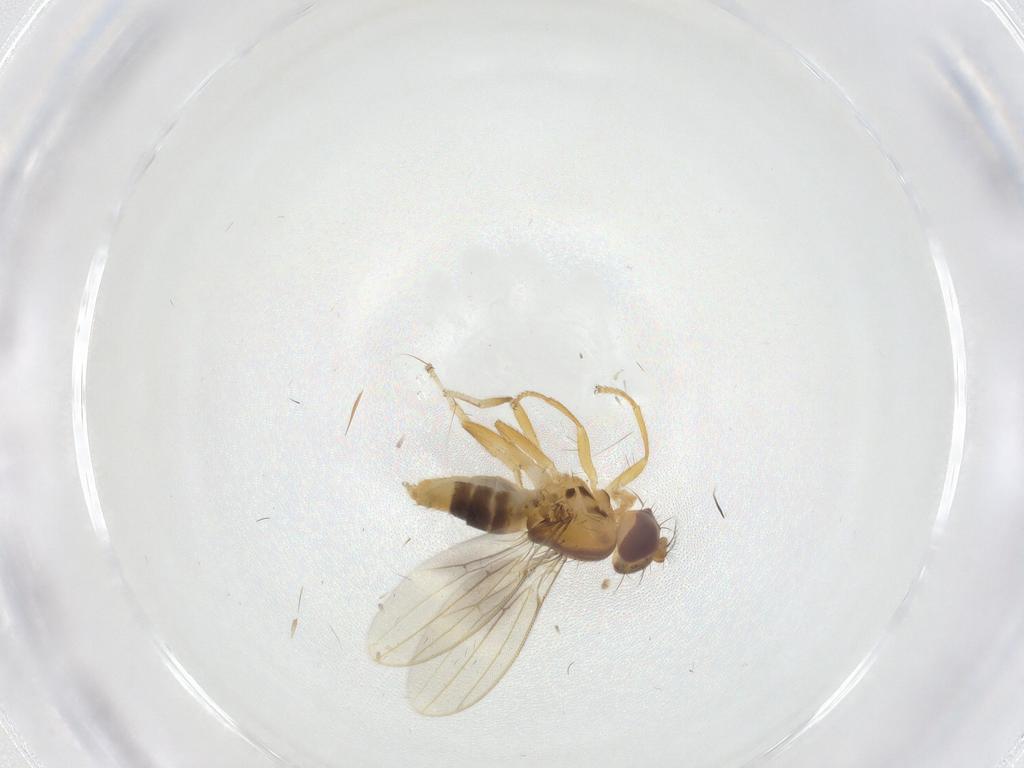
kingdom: Animalia
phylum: Arthropoda
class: Insecta
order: Diptera
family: Periscelididae
